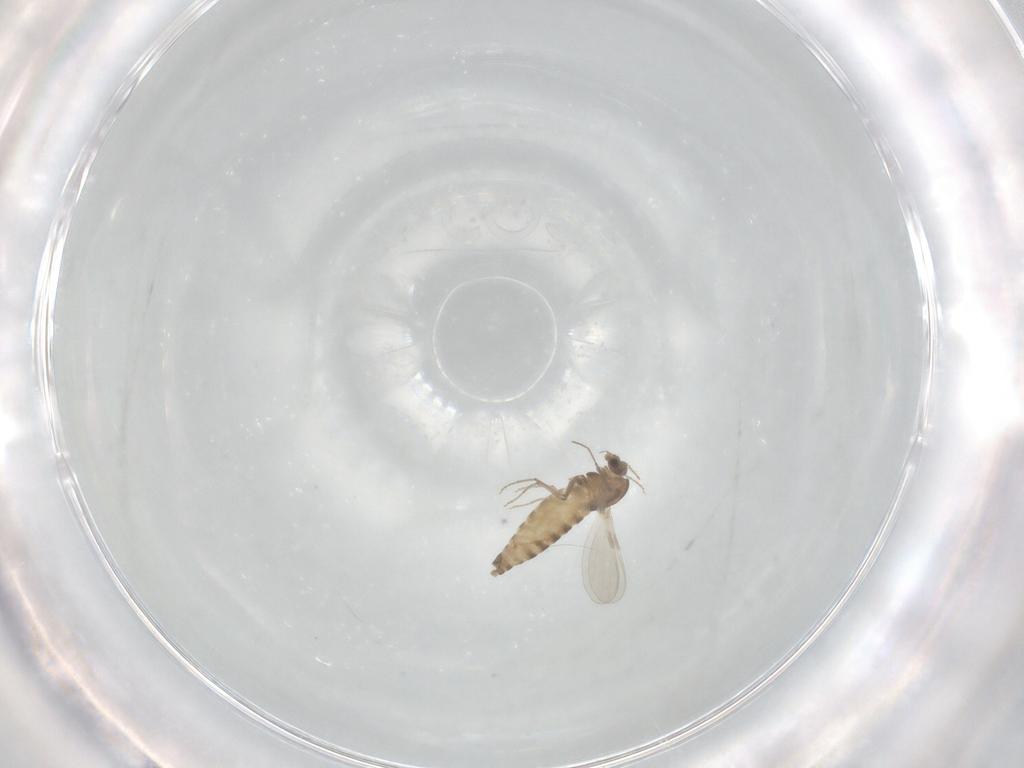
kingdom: Animalia
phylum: Arthropoda
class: Insecta
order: Diptera
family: Chironomidae
